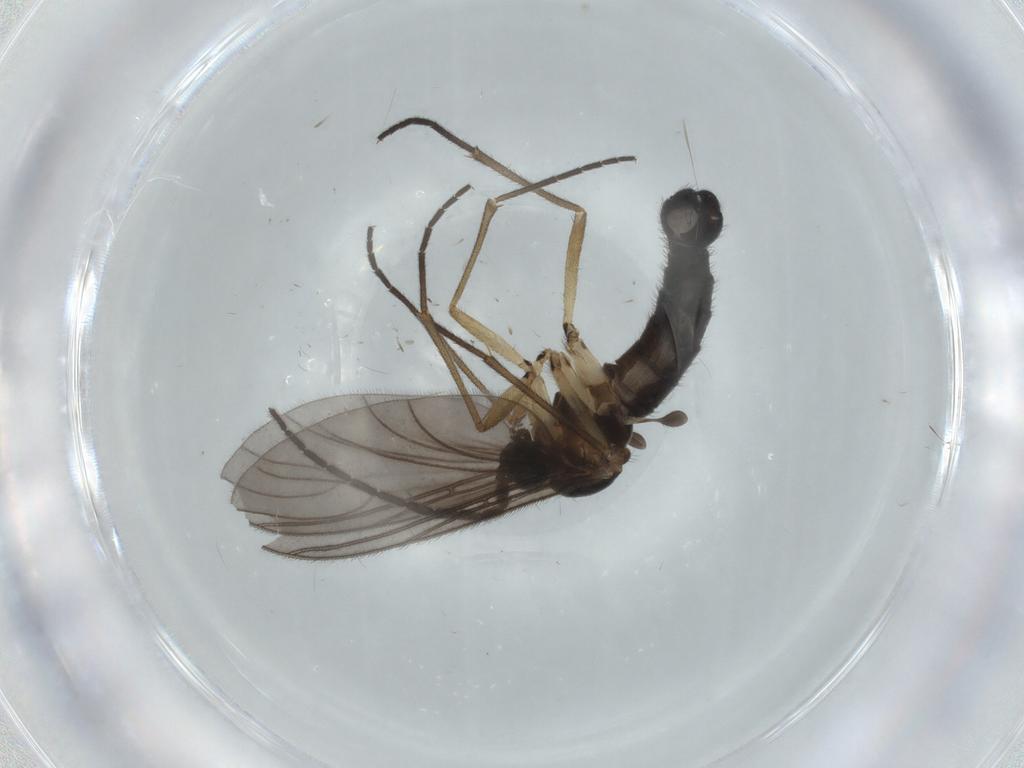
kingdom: Animalia
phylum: Arthropoda
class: Insecta
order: Diptera
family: Sciaridae
